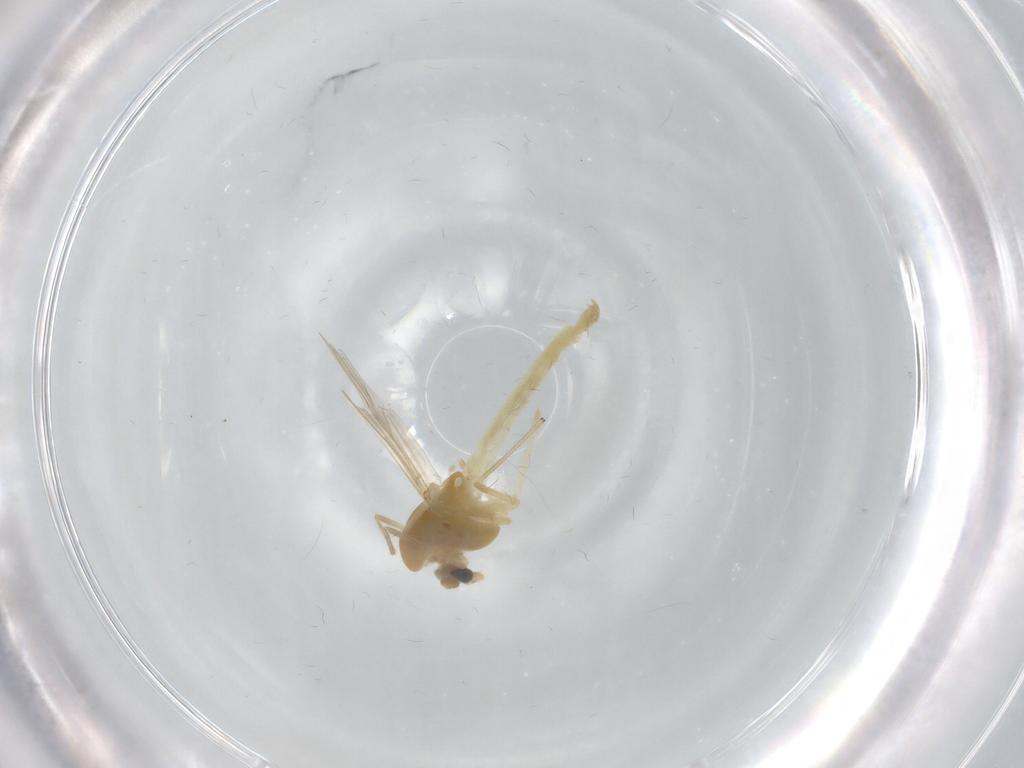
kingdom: Animalia
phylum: Arthropoda
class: Insecta
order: Diptera
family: Chironomidae
